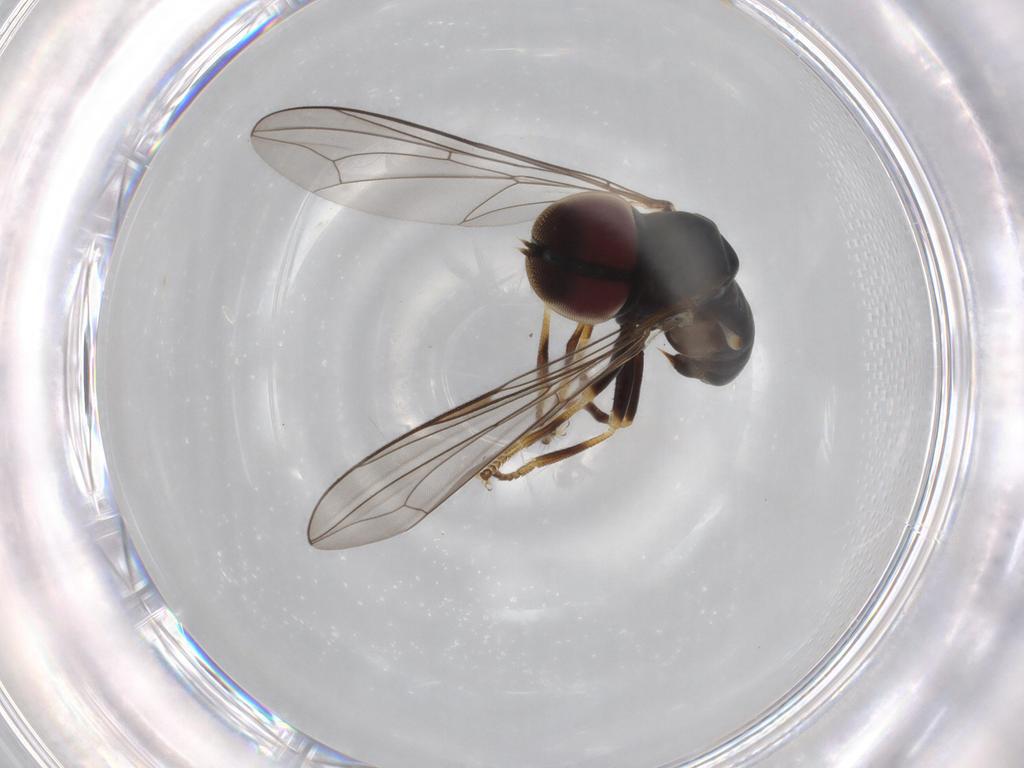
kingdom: Animalia
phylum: Arthropoda
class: Insecta
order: Diptera
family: Pipunculidae
